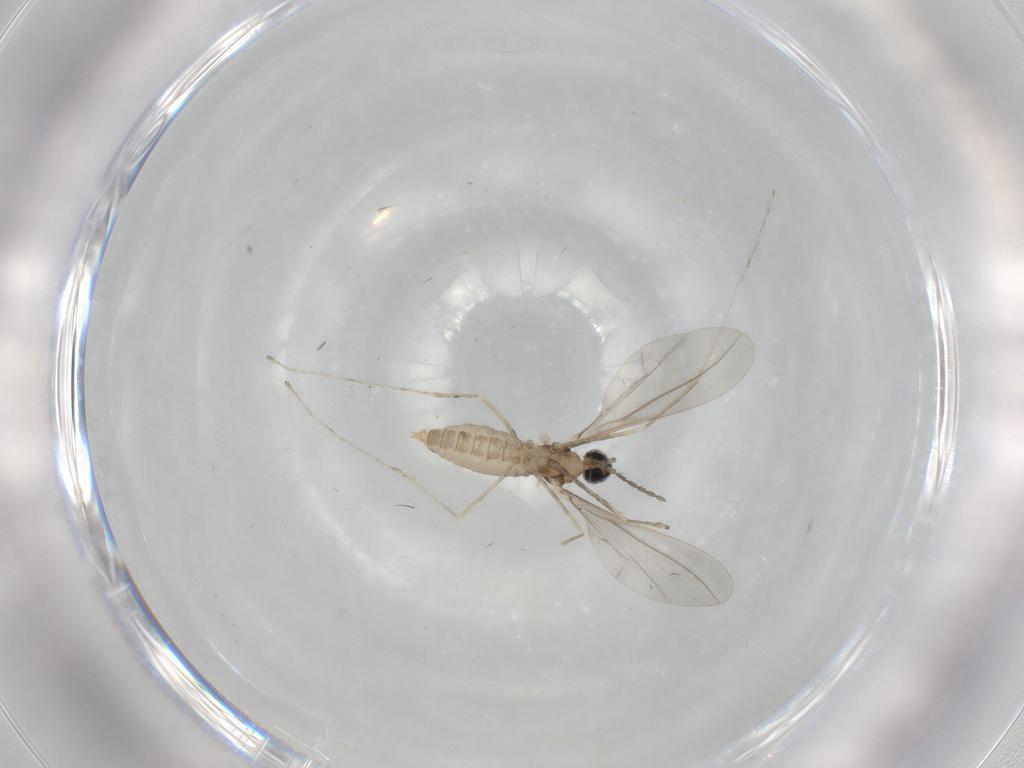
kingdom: Animalia
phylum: Arthropoda
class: Insecta
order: Diptera
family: Cecidomyiidae
